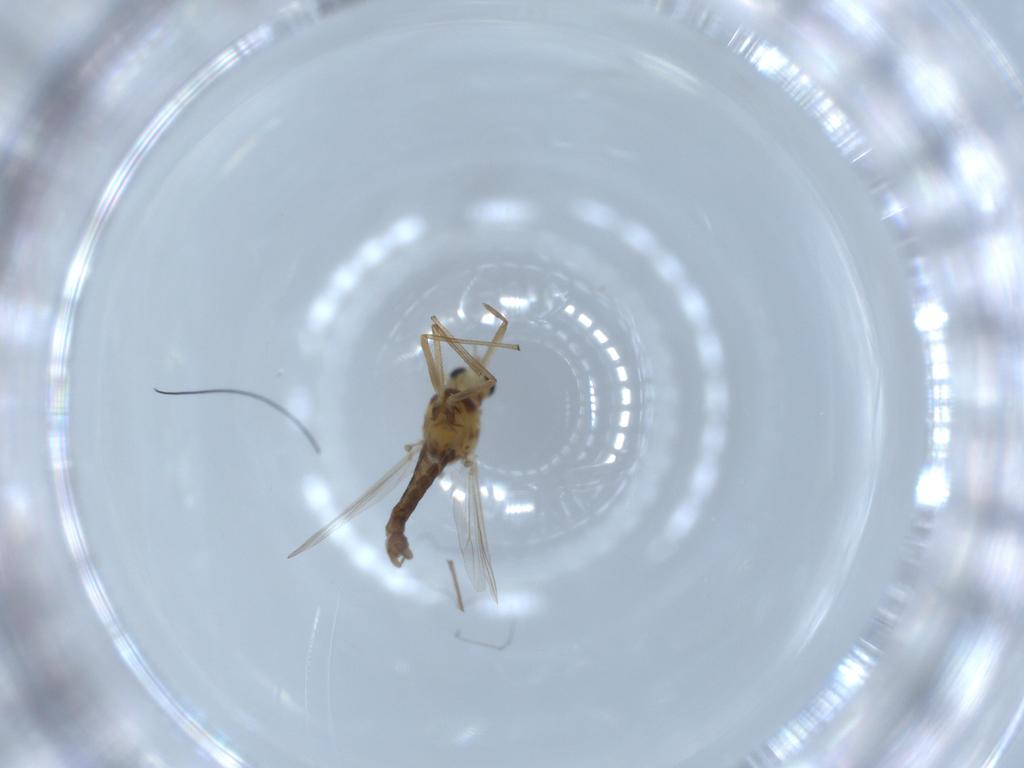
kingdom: Animalia
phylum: Arthropoda
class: Insecta
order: Diptera
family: Chironomidae
